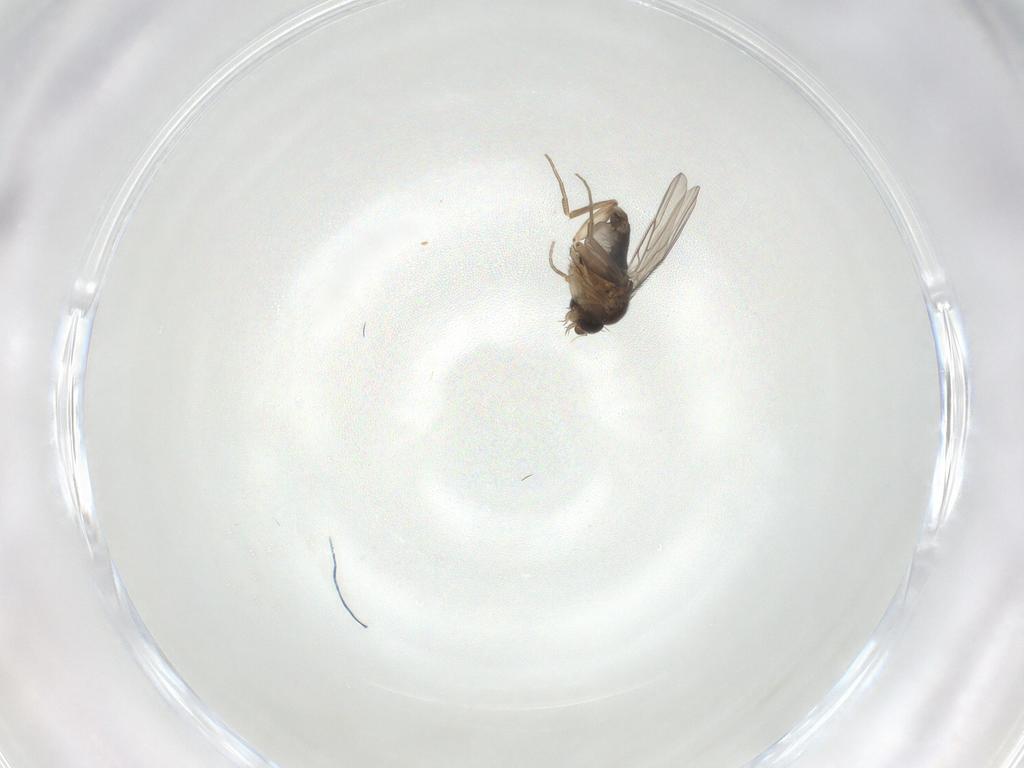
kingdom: Animalia
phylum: Arthropoda
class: Insecta
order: Diptera
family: Phoridae
